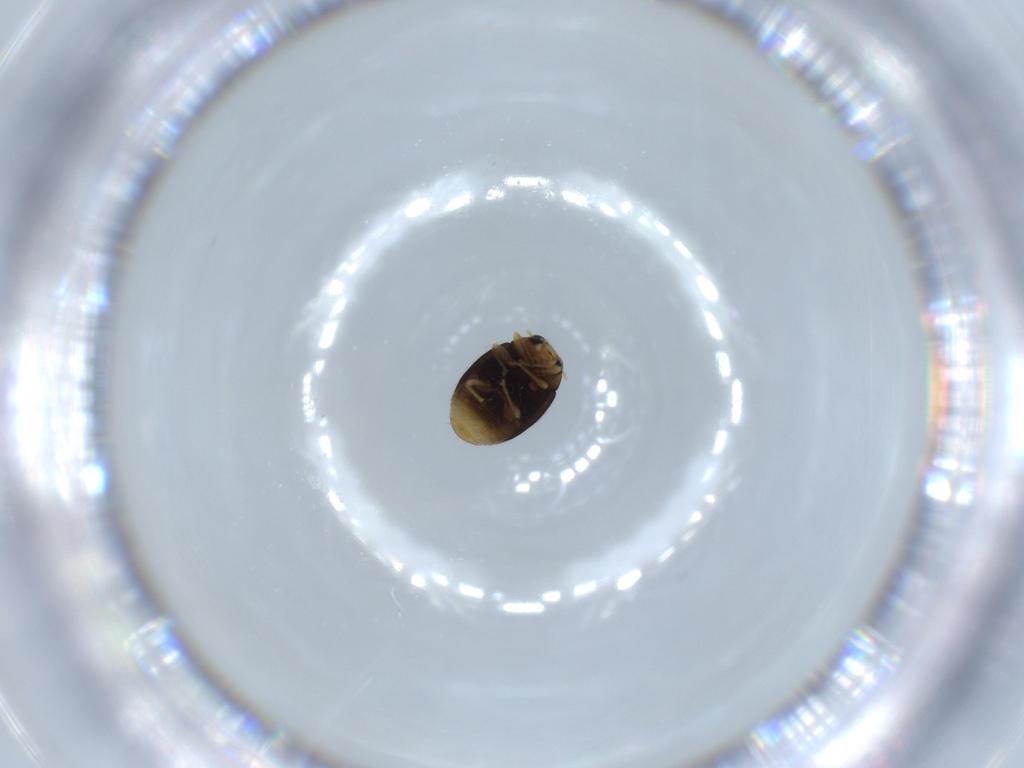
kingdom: Animalia
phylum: Arthropoda
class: Insecta
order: Coleoptera
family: Coccinellidae
